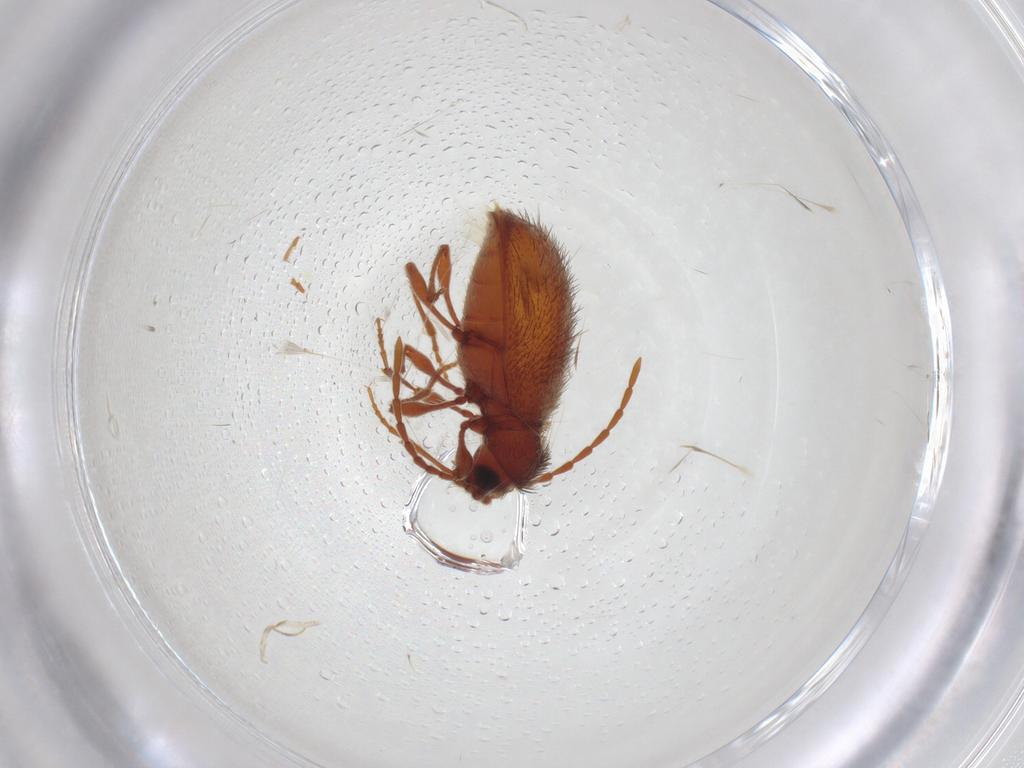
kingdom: Animalia
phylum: Arthropoda
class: Insecta
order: Coleoptera
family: Ptinidae
